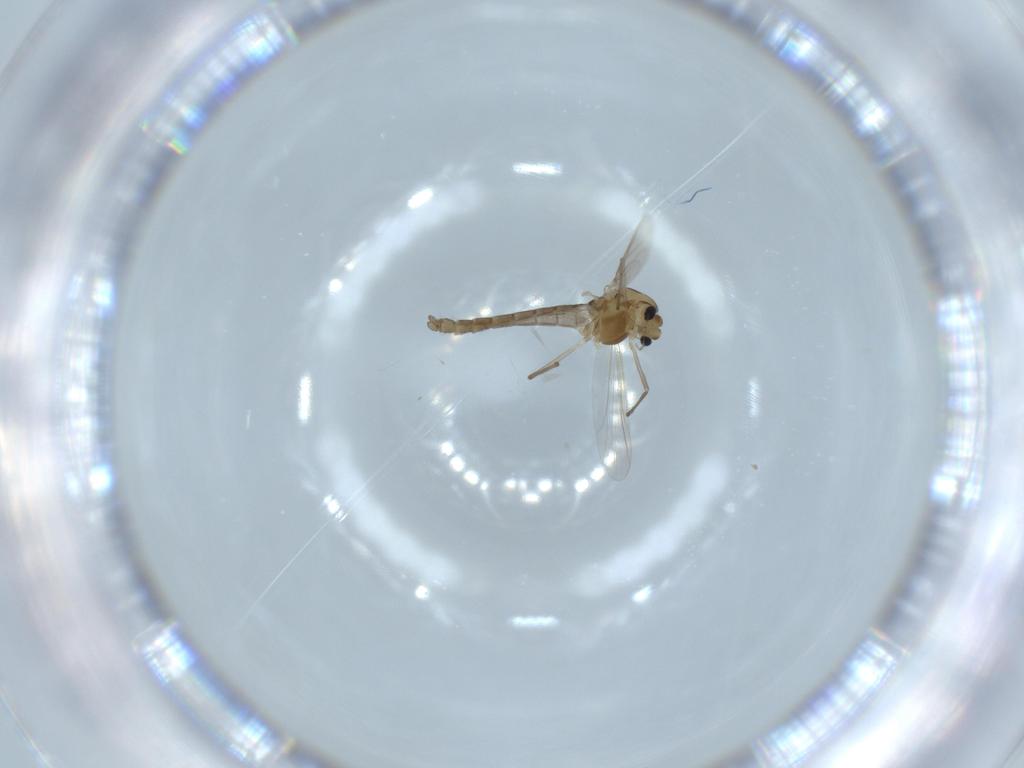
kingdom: Animalia
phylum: Arthropoda
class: Insecta
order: Diptera
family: Chironomidae
